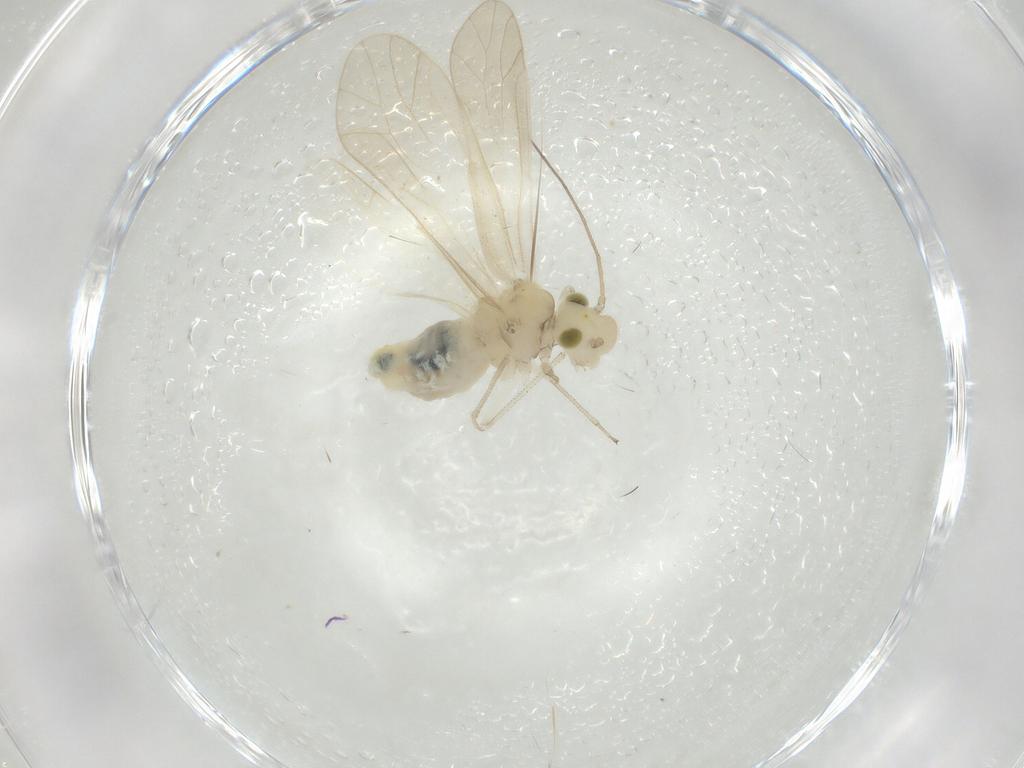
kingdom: Animalia
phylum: Arthropoda
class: Insecta
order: Psocodea
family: Caeciliusidae
